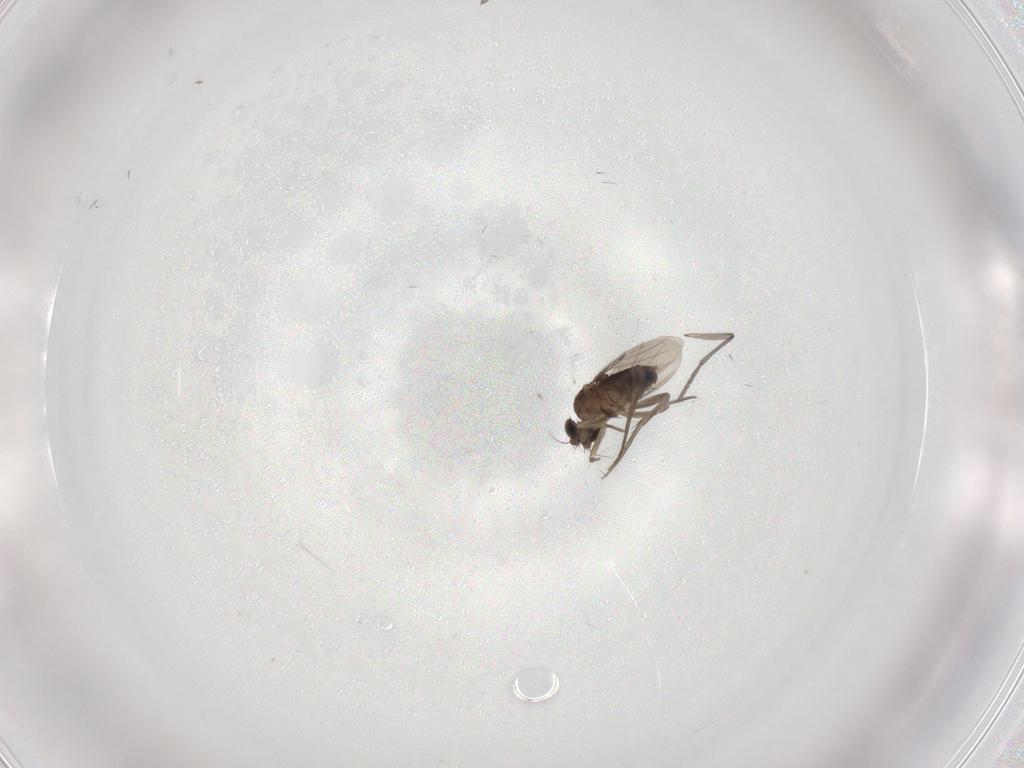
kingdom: Animalia
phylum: Arthropoda
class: Insecta
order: Diptera
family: Phoridae
